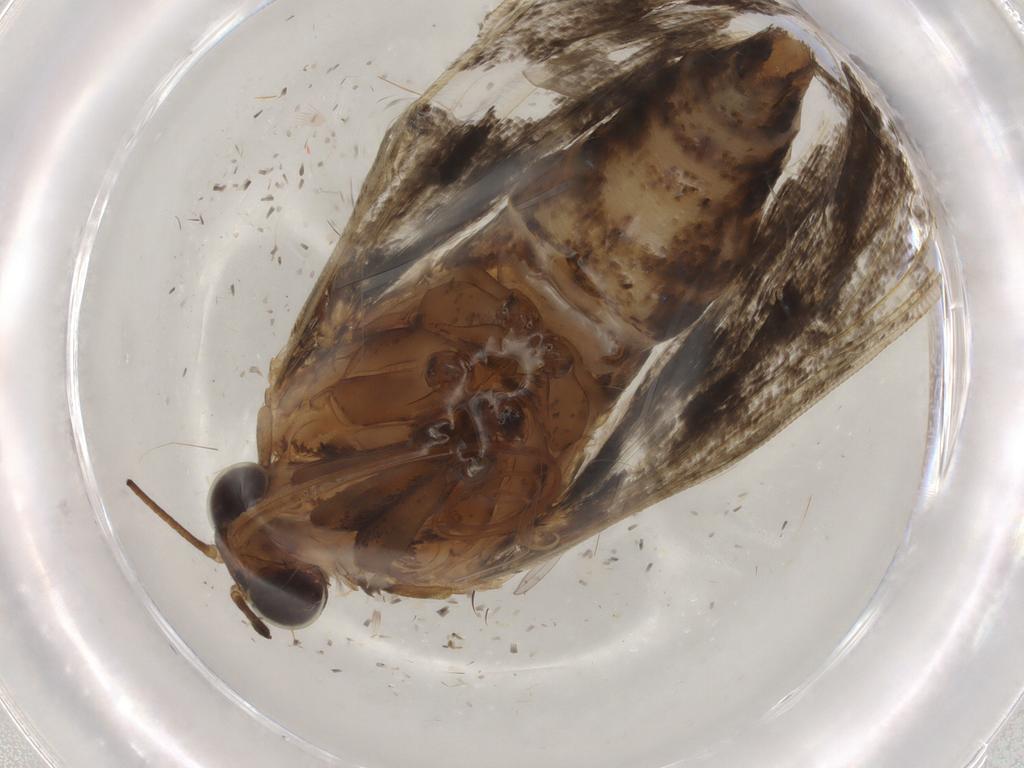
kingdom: Animalia
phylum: Arthropoda
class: Insecta
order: Lepidoptera
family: Crambidae
